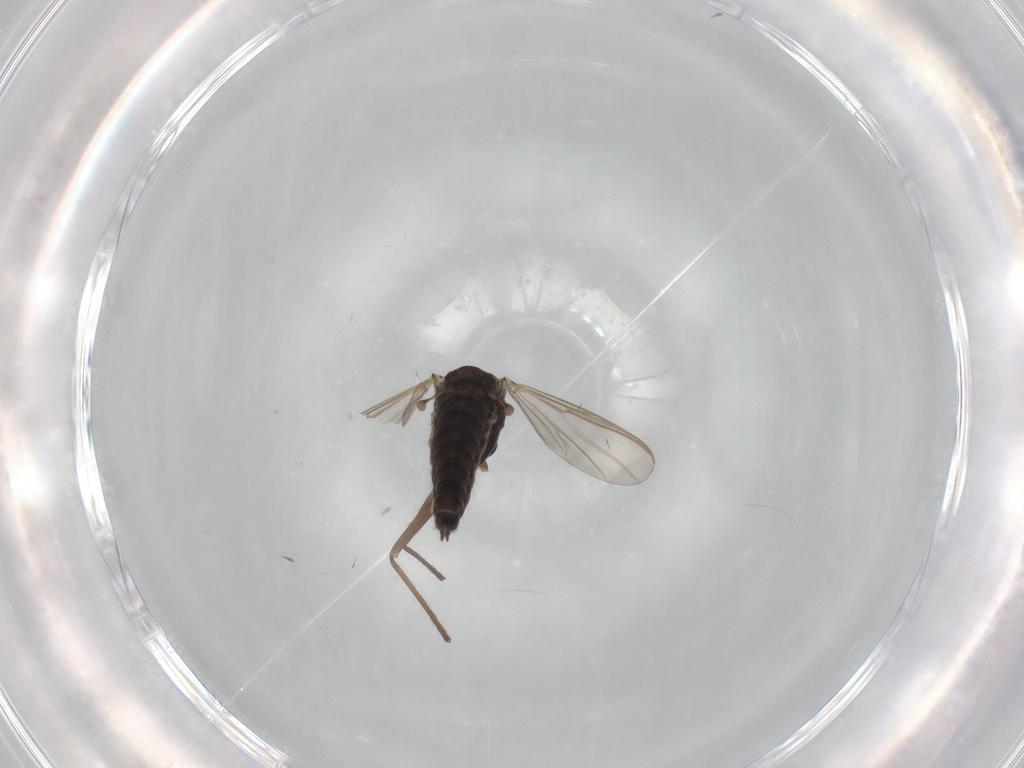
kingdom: Animalia
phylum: Arthropoda
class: Insecta
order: Diptera
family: Chironomidae
